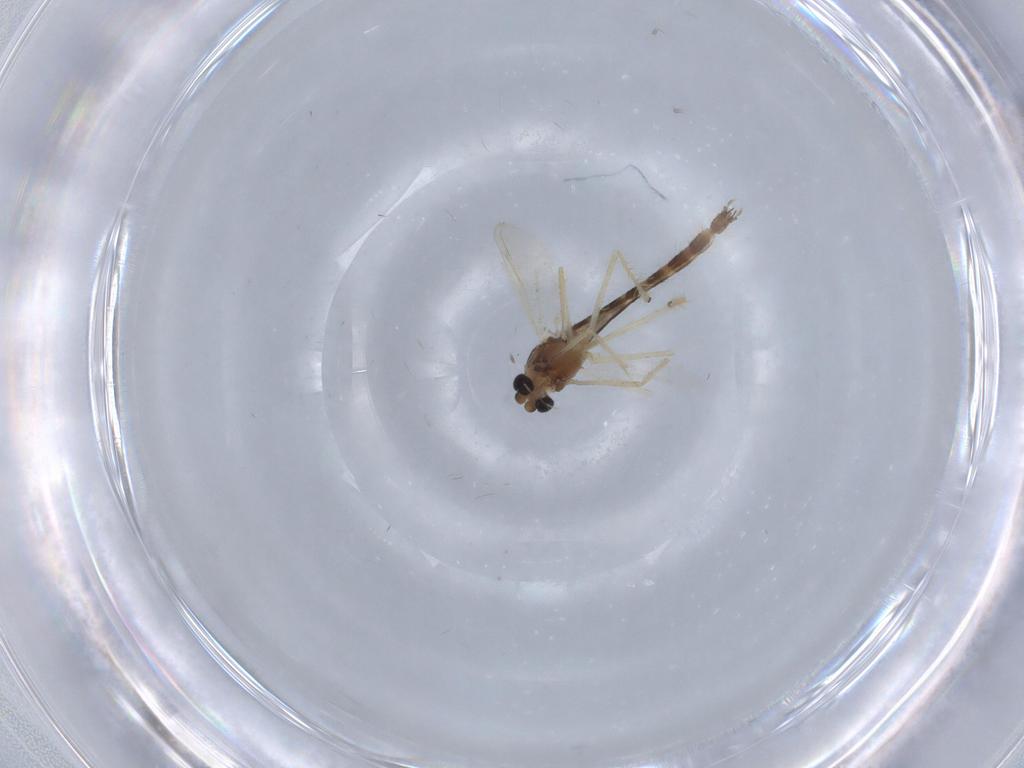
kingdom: Animalia
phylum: Arthropoda
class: Insecta
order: Diptera
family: Chironomidae
